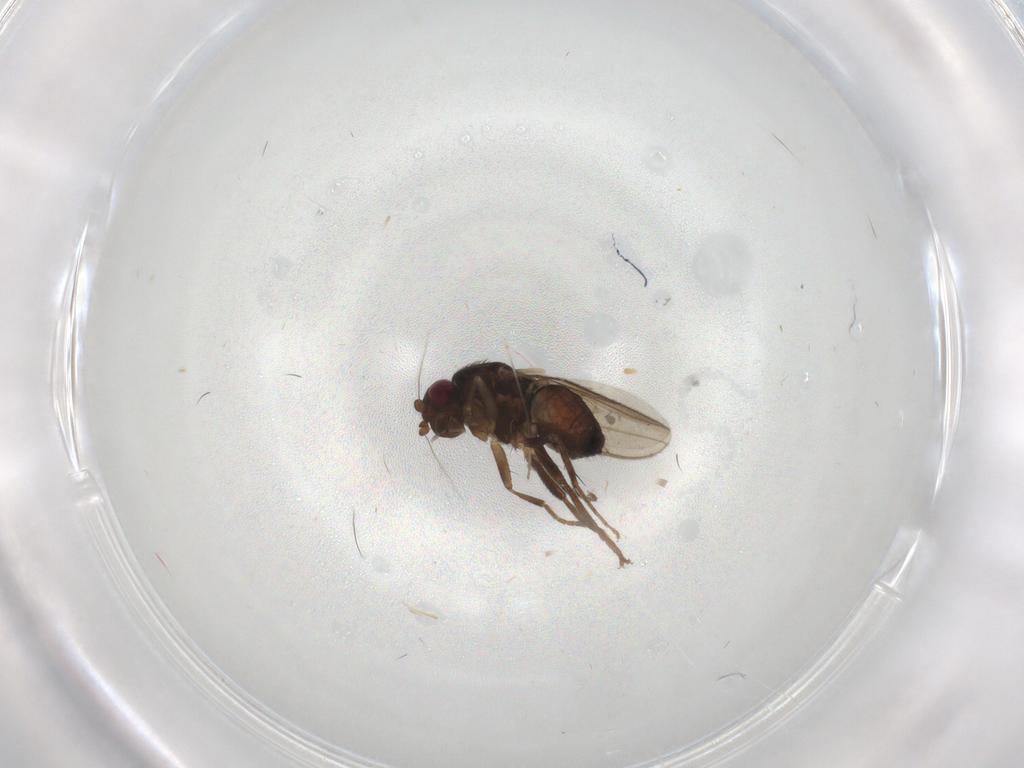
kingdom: Animalia
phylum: Arthropoda
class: Insecta
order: Diptera
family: Sphaeroceridae
